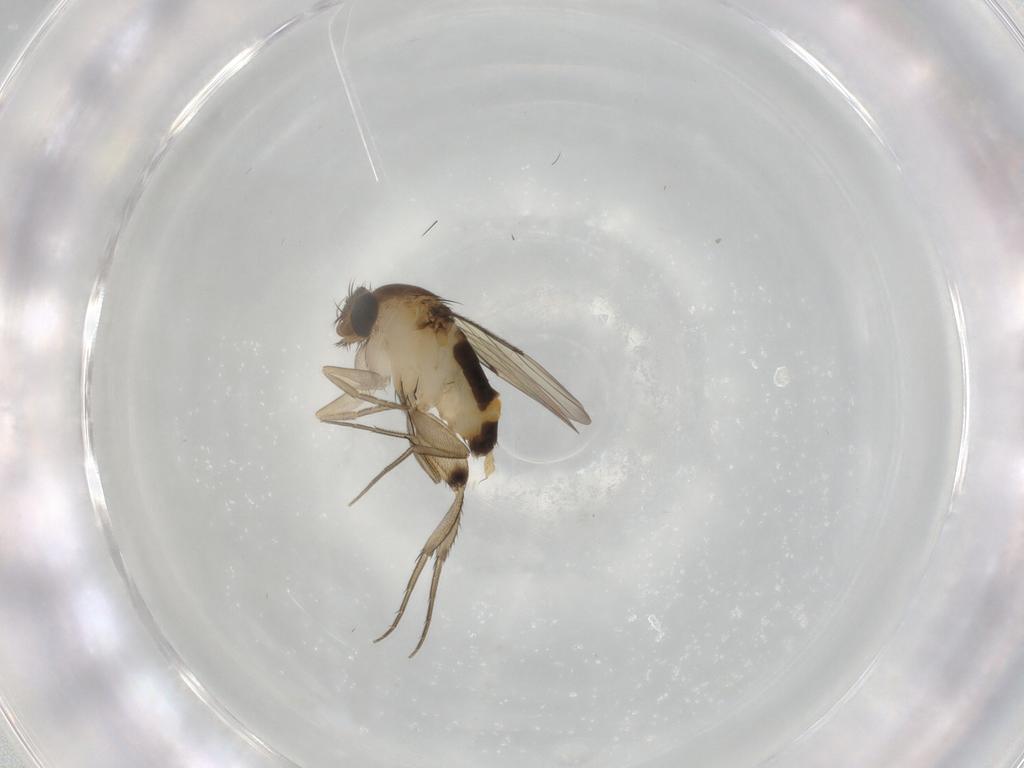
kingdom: Animalia
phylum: Arthropoda
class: Insecta
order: Diptera
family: Phoridae
